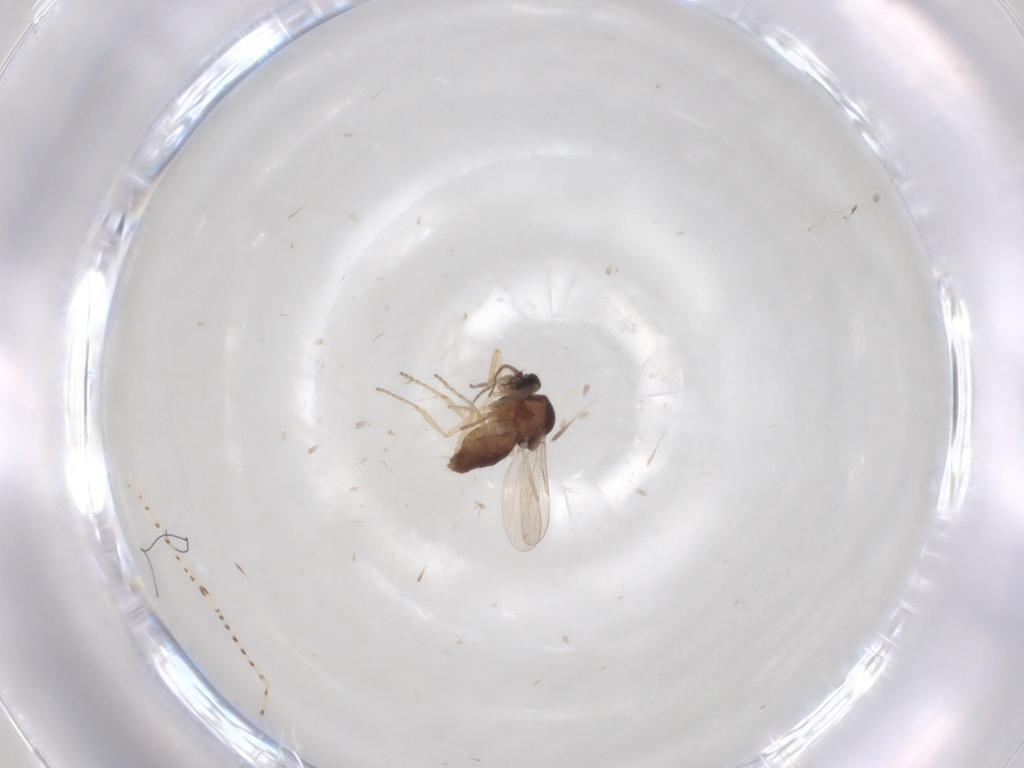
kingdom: Animalia
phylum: Arthropoda
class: Insecta
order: Diptera
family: Ceratopogonidae
